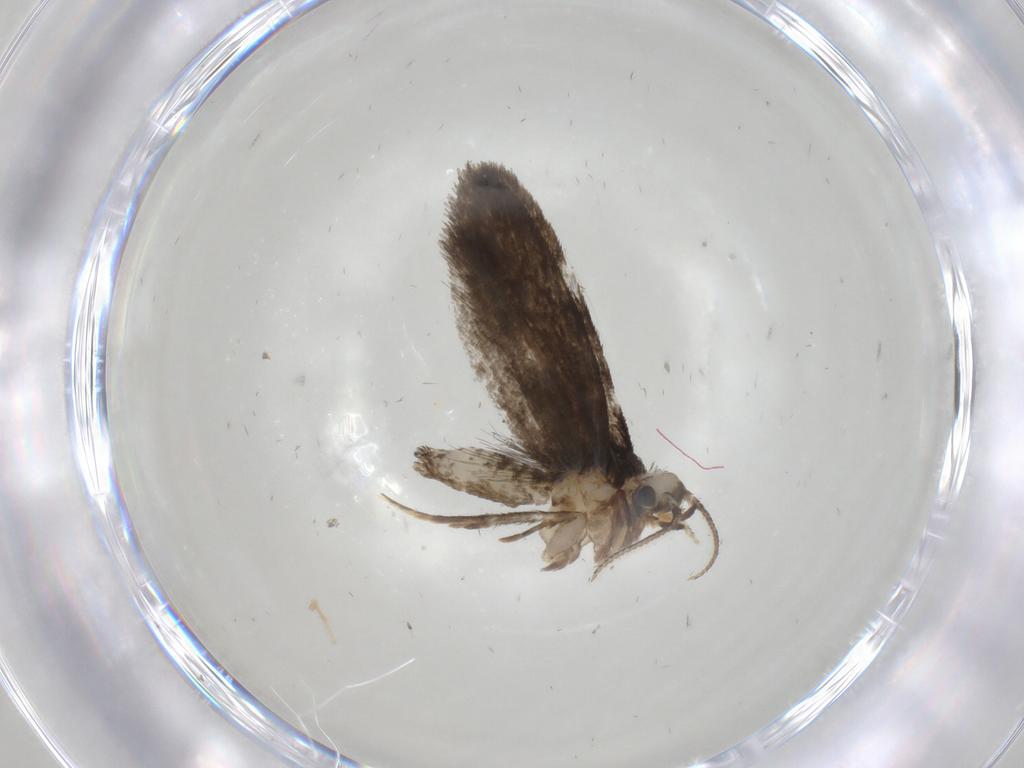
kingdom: Animalia
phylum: Arthropoda
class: Insecta
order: Lepidoptera
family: Psychidae
